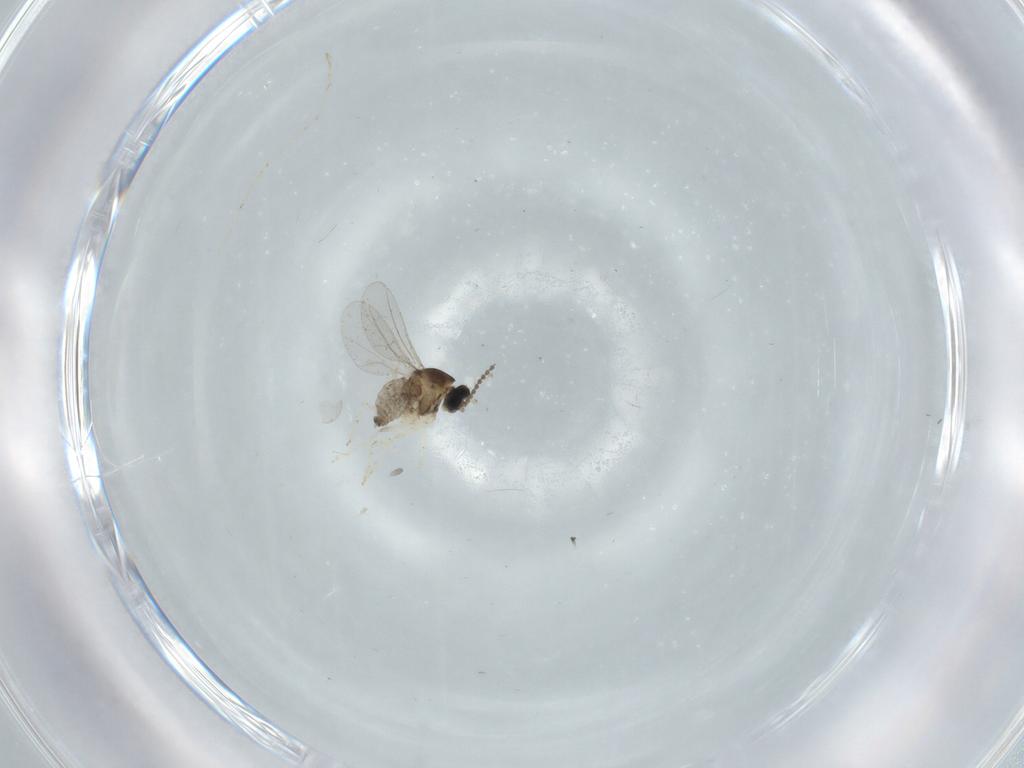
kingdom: Animalia
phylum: Arthropoda
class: Insecta
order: Diptera
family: Cecidomyiidae
